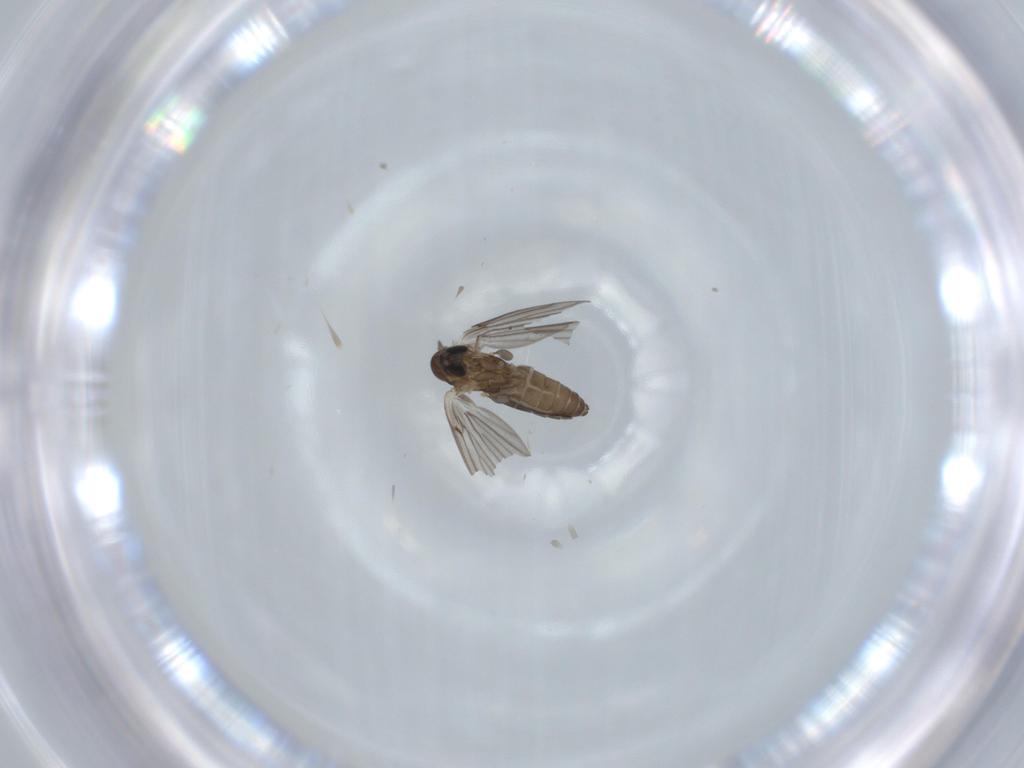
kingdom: Animalia
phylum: Arthropoda
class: Insecta
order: Diptera
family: Psychodidae
